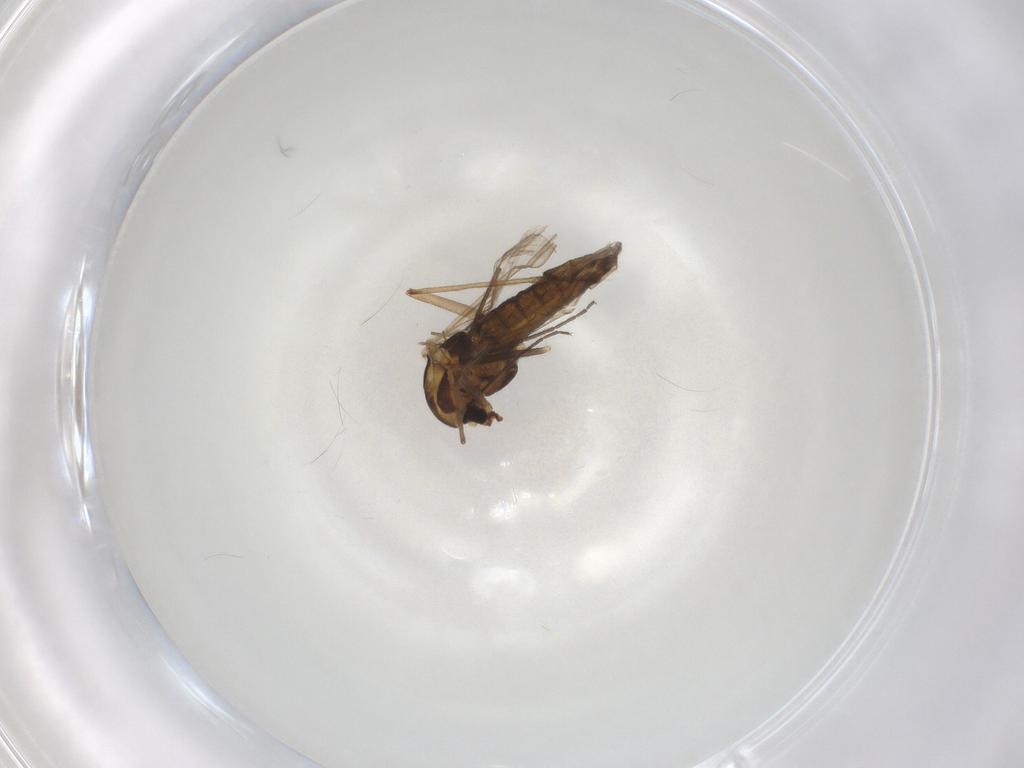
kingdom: Animalia
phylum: Arthropoda
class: Insecta
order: Diptera
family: Chironomidae
